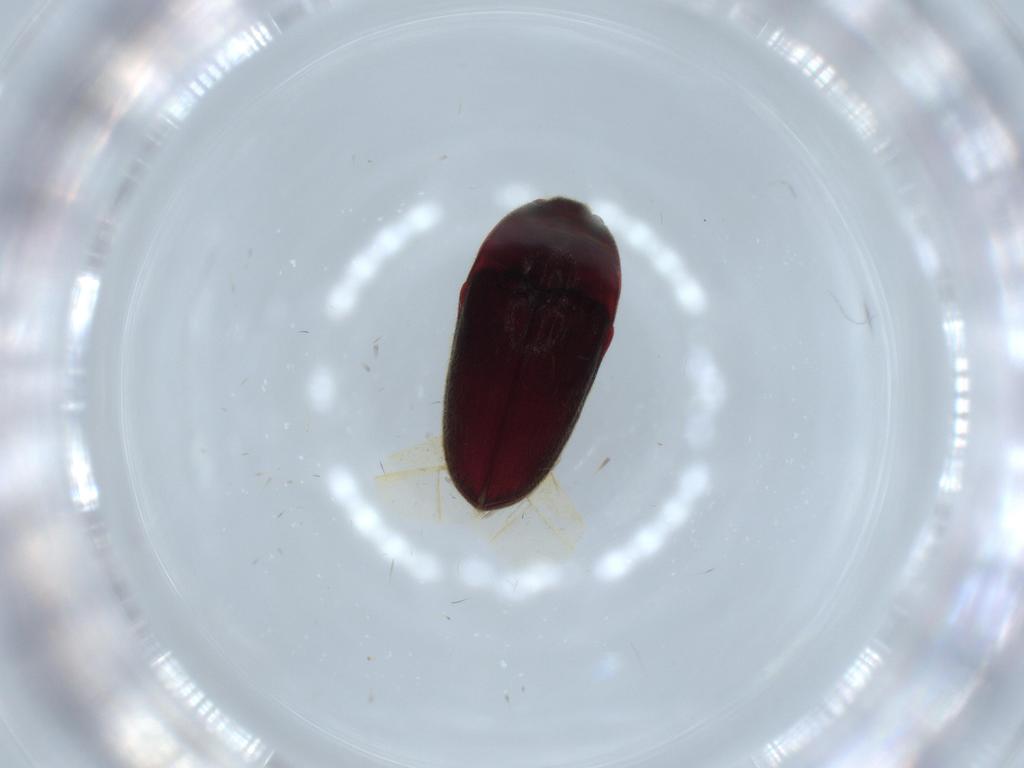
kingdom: Animalia
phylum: Arthropoda
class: Insecta
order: Coleoptera
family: Throscidae
